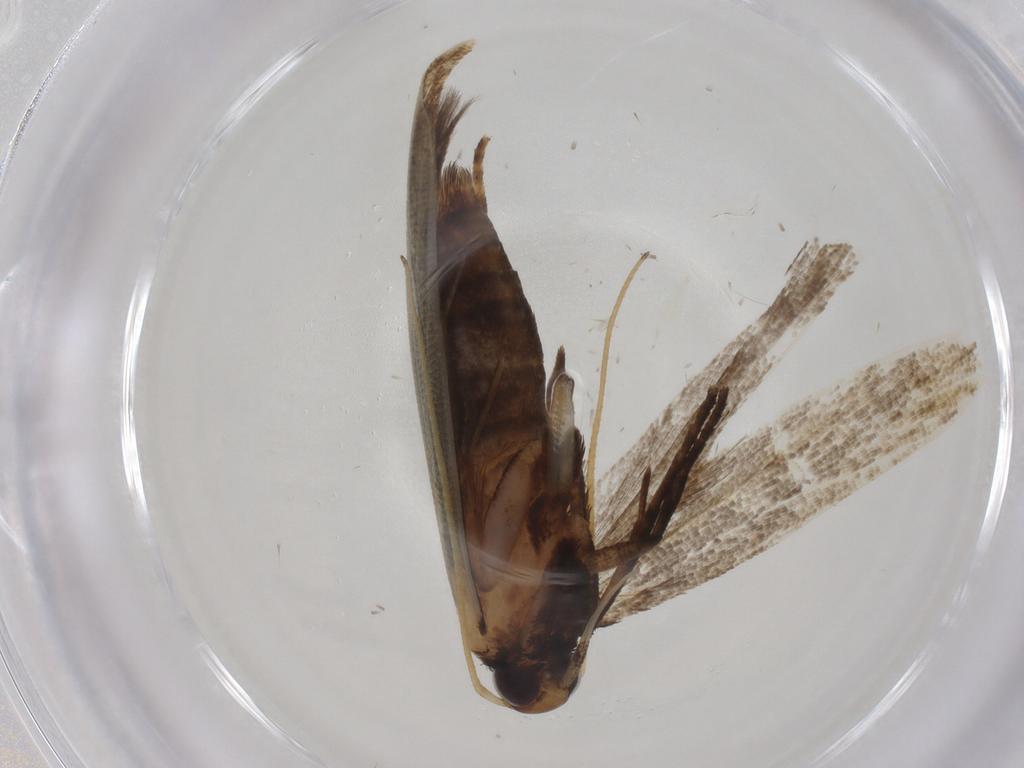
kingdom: Animalia
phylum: Arthropoda
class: Insecta
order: Lepidoptera
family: Gelechiidae
